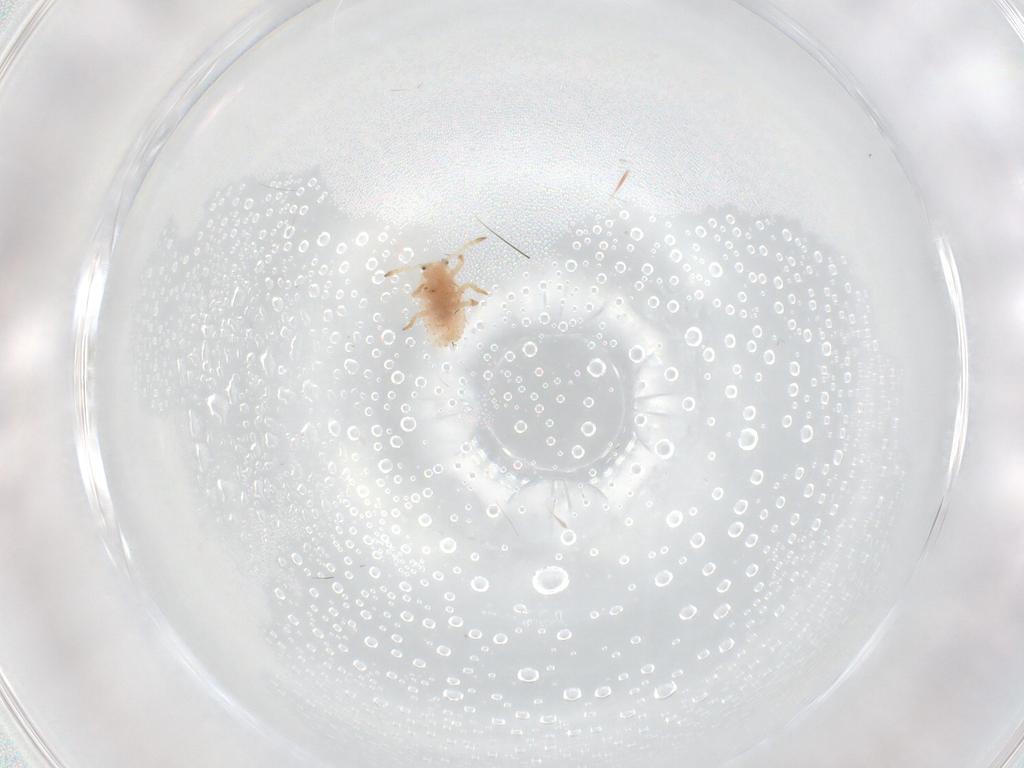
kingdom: Animalia
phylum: Arthropoda
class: Insecta
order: Hemiptera
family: Coccoidea_incertae_sedis
